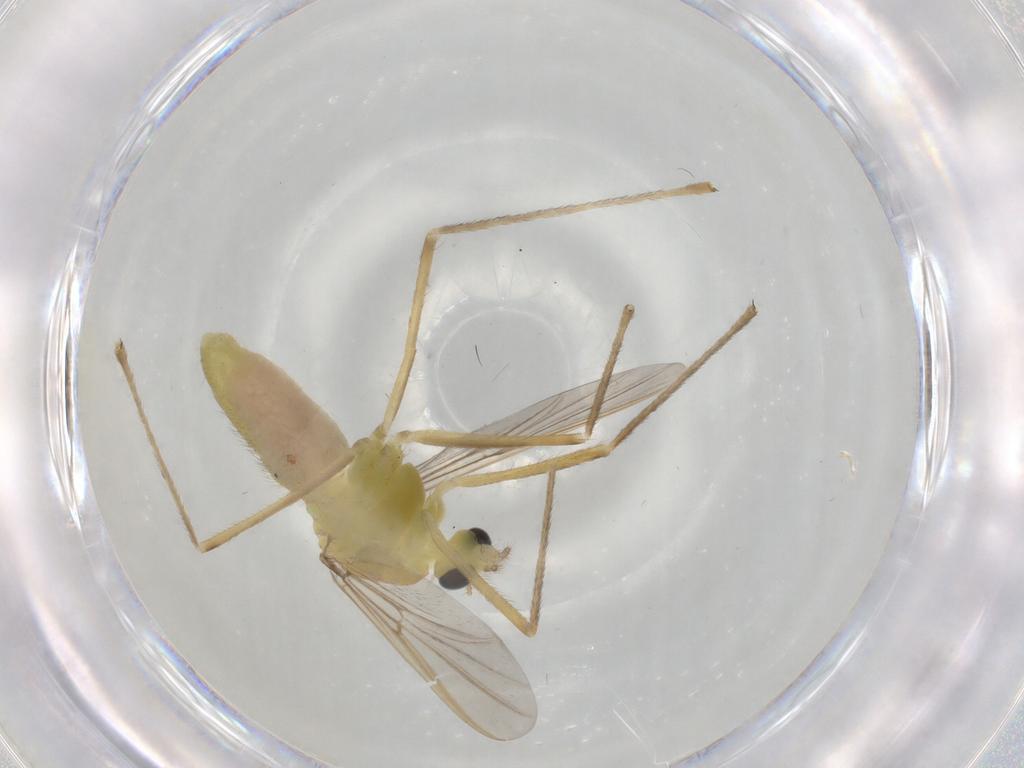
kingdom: Animalia
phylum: Arthropoda
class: Insecta
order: Diptera
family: Chironomidae
